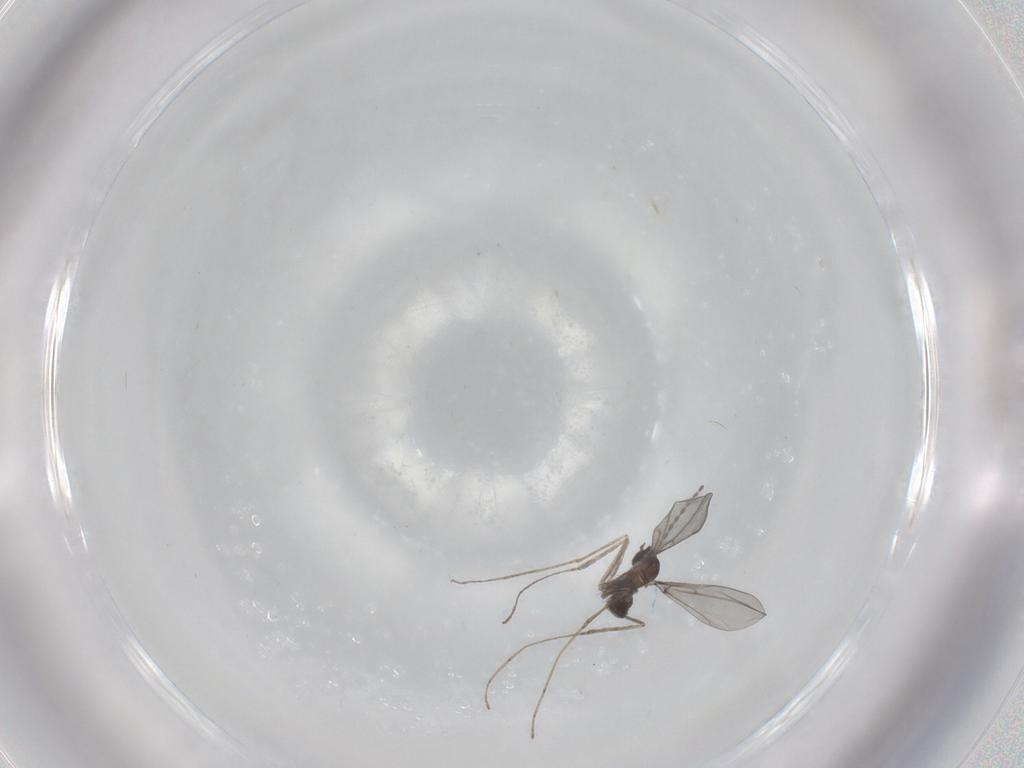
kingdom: Animalia
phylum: Arthropoda
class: Insecta
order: Diptera
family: Cecidomyiidae
